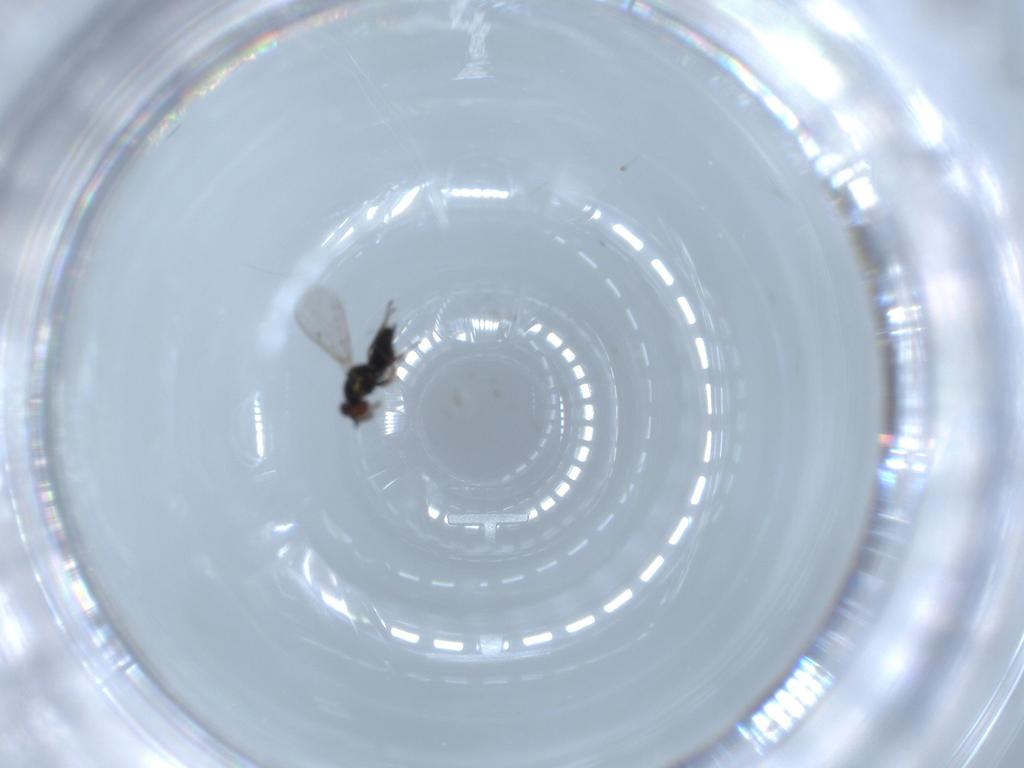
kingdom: Animalia
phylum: Arthropoda
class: Insecta
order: Hymenoptera
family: Eulophidae
